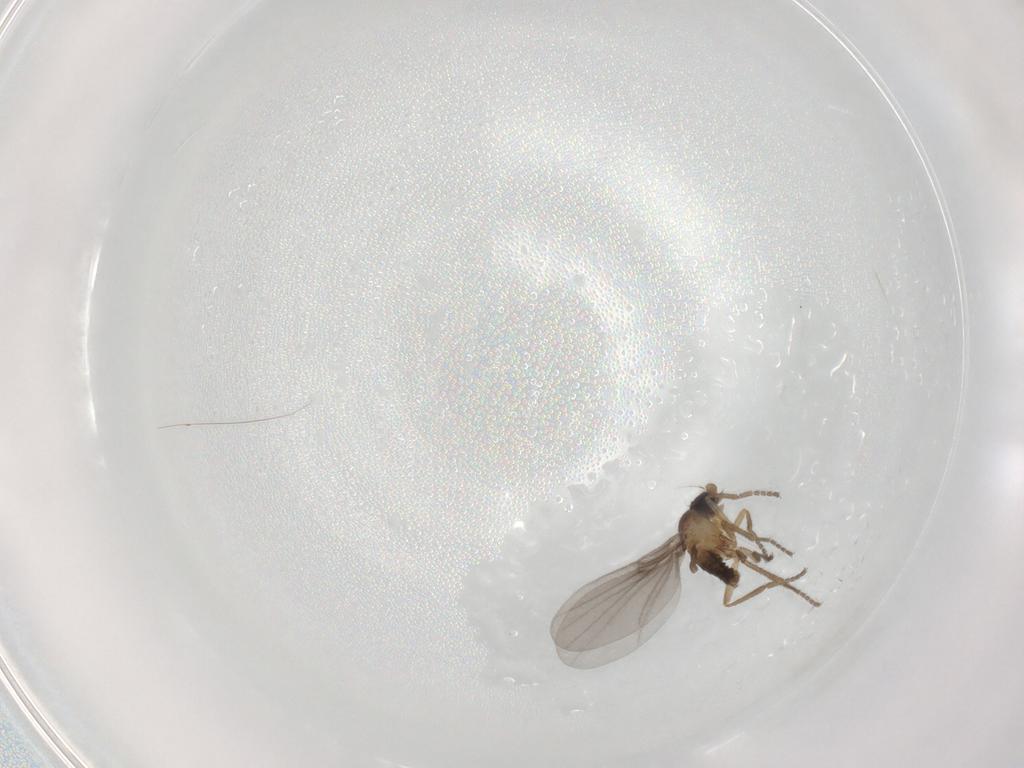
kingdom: Animalia
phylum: Arthropoda
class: Insecta
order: Diptera
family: Phoridae
